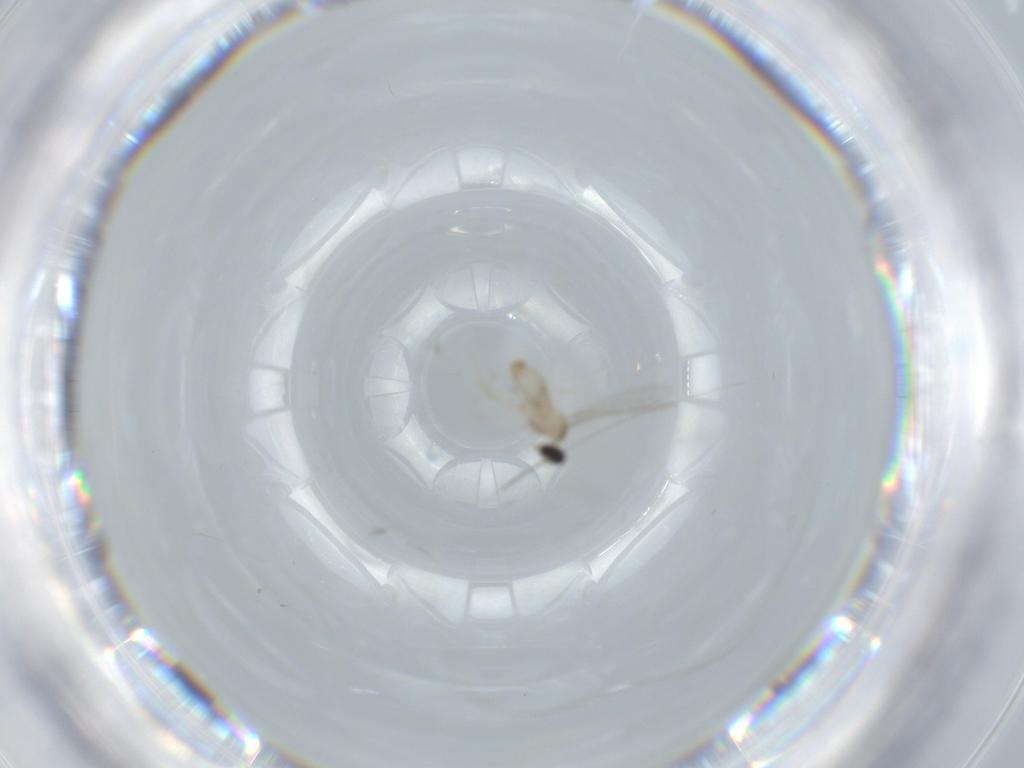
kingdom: Animalia
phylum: Arthropoda
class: Insecta
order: Diptera
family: Cecidomyiidae
